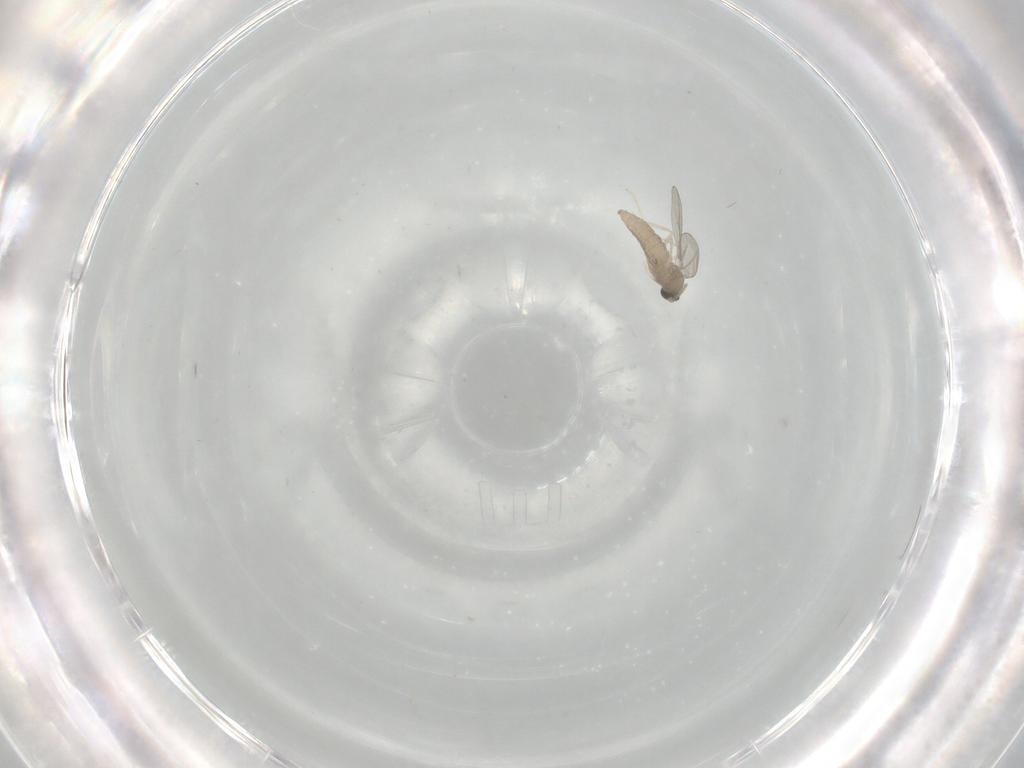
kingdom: Animalia
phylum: Arthropoda
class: Insecta
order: Diptera
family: Cecidomyiidae
